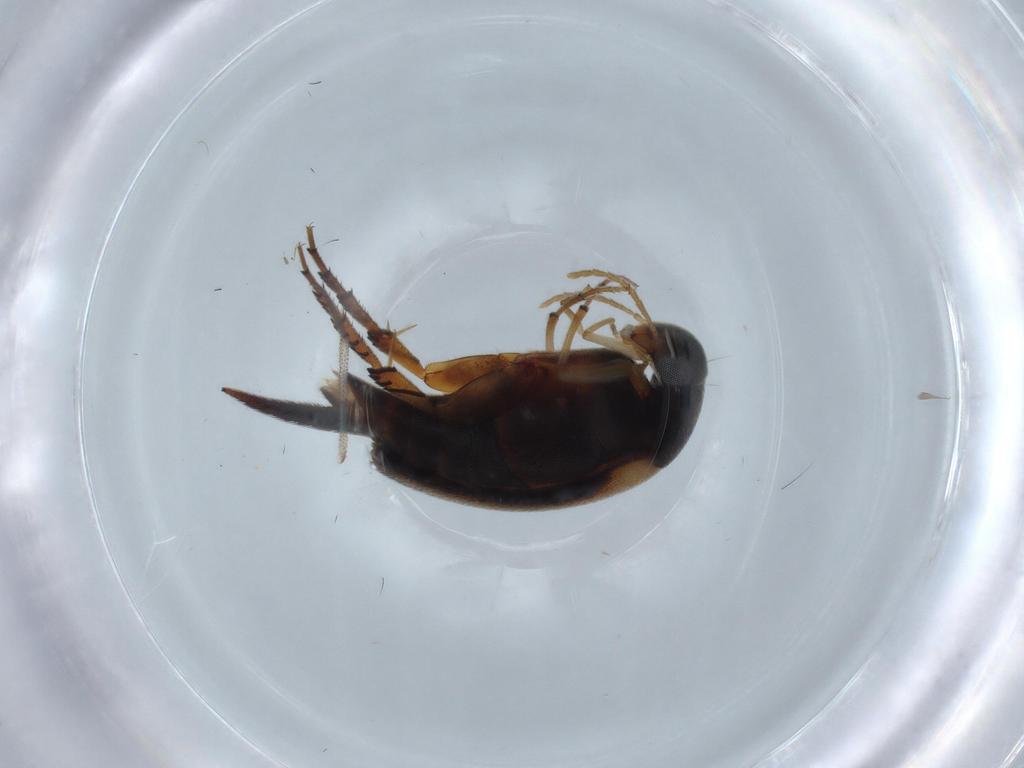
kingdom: Animalia
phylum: Arthropoda
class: Insecta
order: Coleoptera
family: Mordellidae
